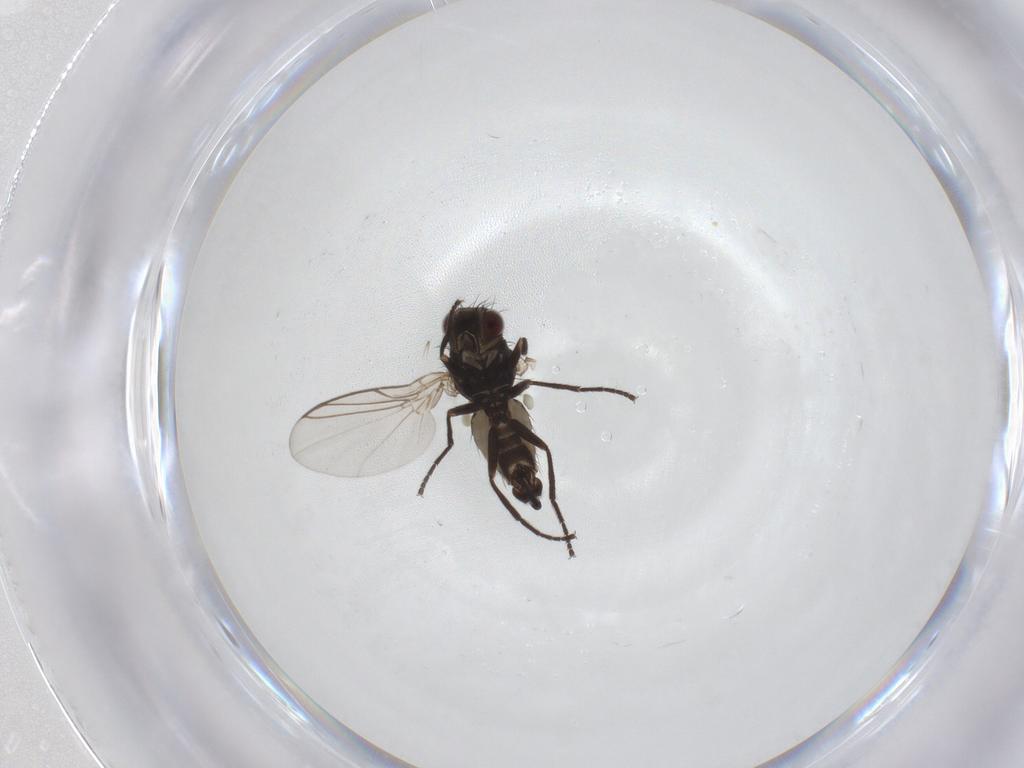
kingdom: Animalia
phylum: Arthropoda
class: Insecta
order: Diptera
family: Agromyzidae
